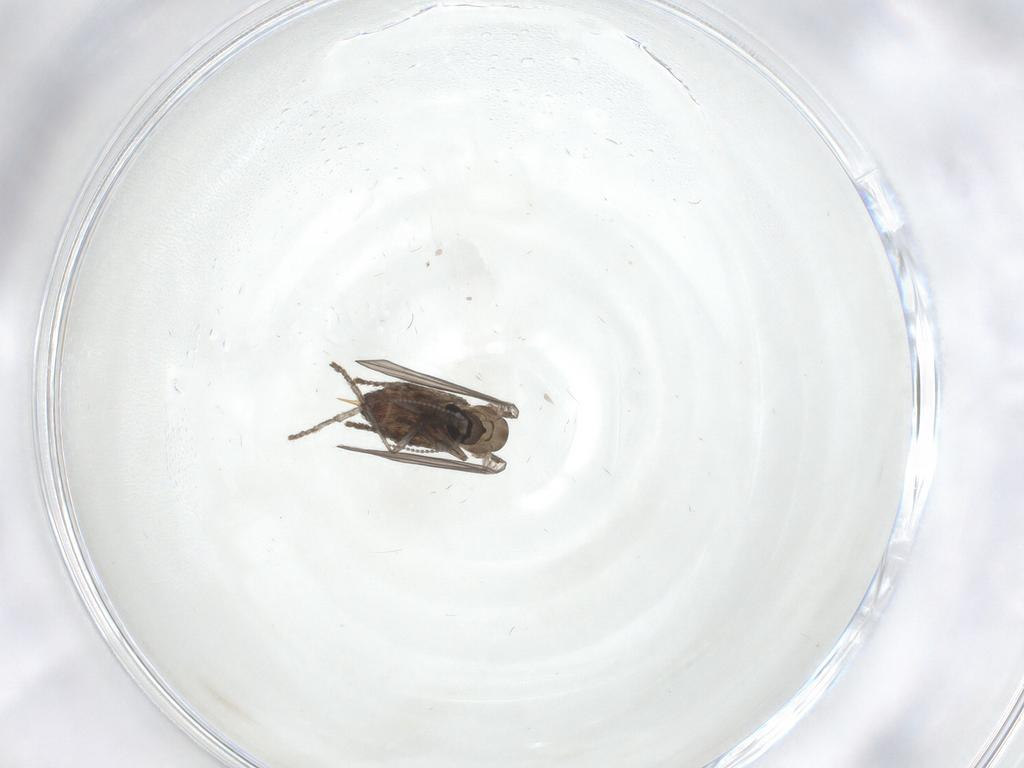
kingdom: Animalia
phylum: Arthropoda
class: Insecta
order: Diptera
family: Psychodidae
